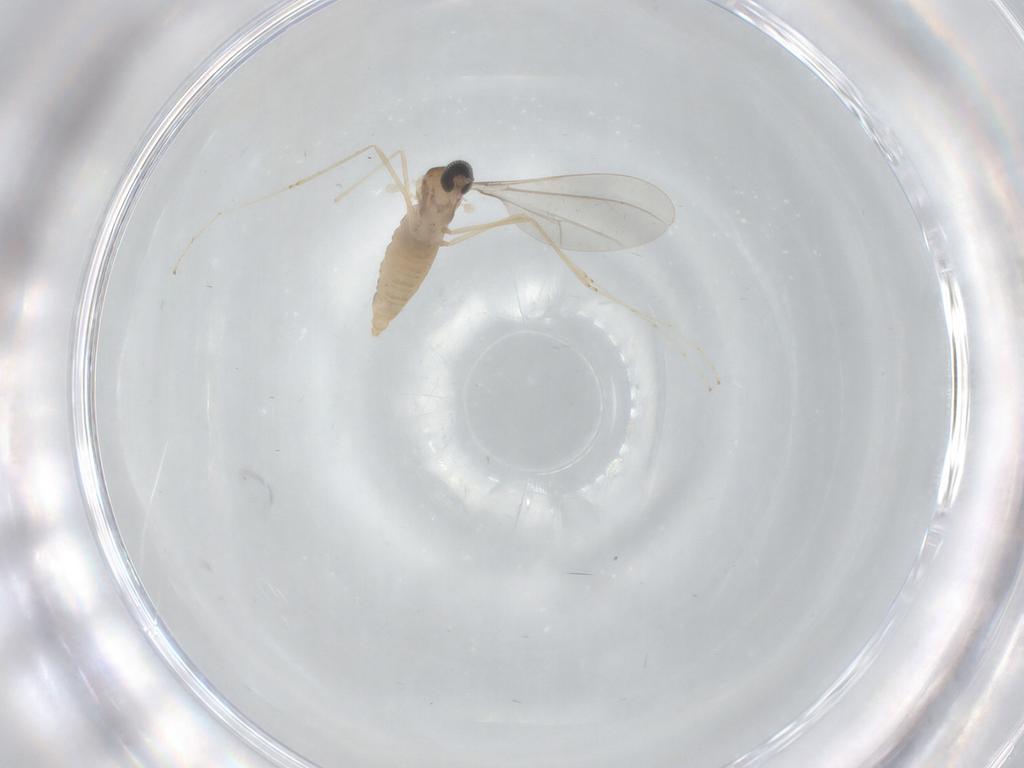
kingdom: Animalia
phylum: Arthropoda
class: Insecta
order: Diptera
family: Cecidomyiidae
